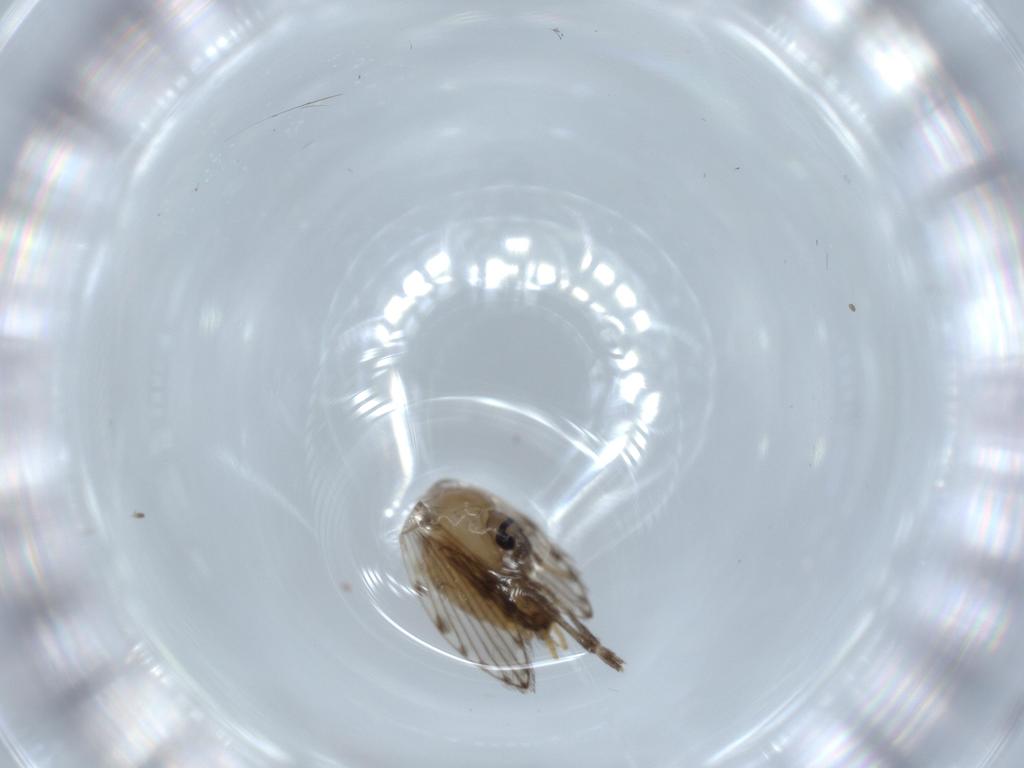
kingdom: Animalia
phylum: Arthropoda
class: Insecta
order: Diptera
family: Psychodidae
